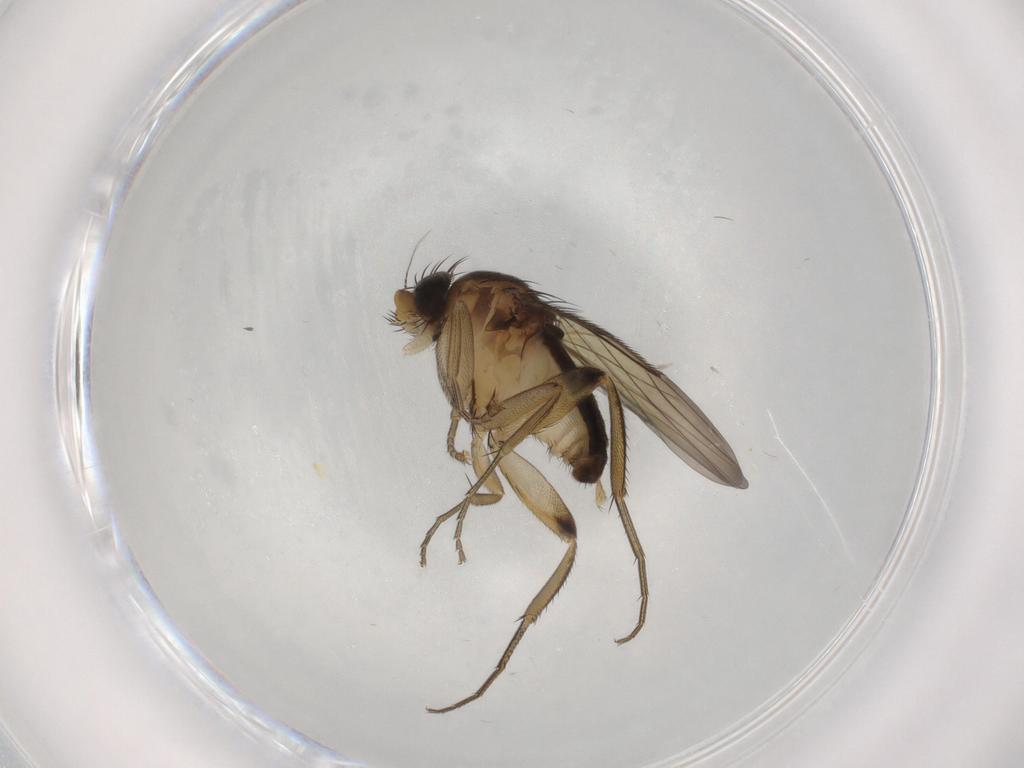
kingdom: Animalia
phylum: Arthropoda
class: Insecta
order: Diptera
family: Phoridae
